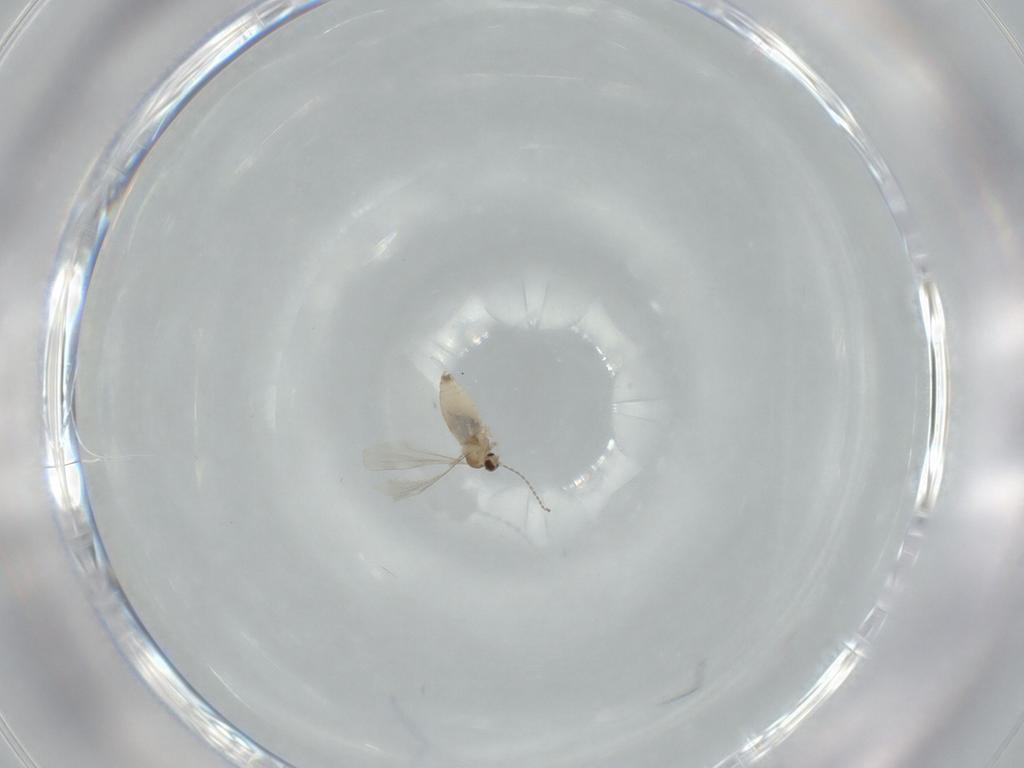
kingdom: Animalia
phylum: Arthropoda
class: Insecta
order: Diptera
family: Cecidomyiidae
